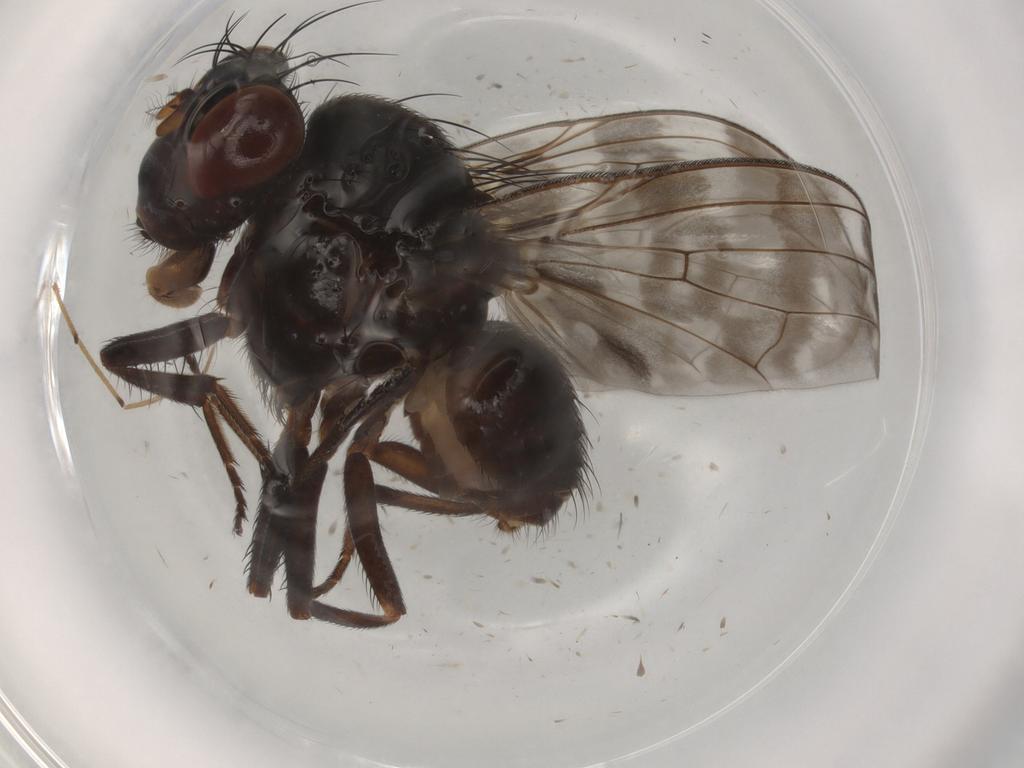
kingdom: Animalia
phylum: Arthropoda
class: Insecta
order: Diptera
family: Lauxaniidae
